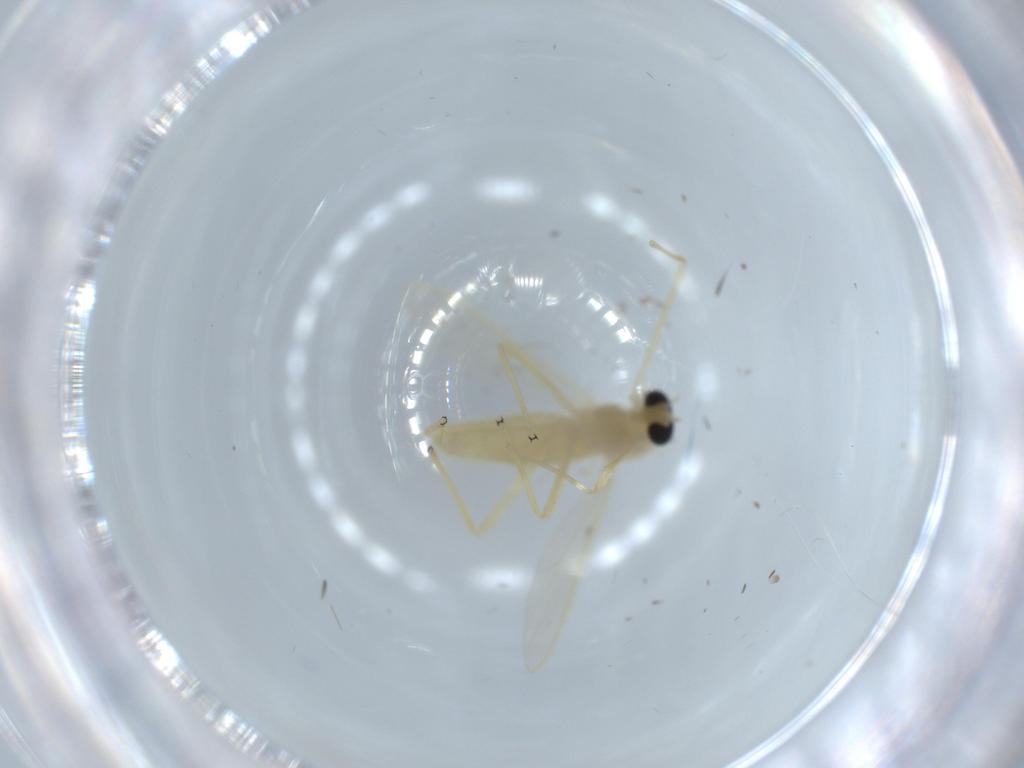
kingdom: Animalia
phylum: Arthropoda
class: Insecta
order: Diptera
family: Chironomidae
